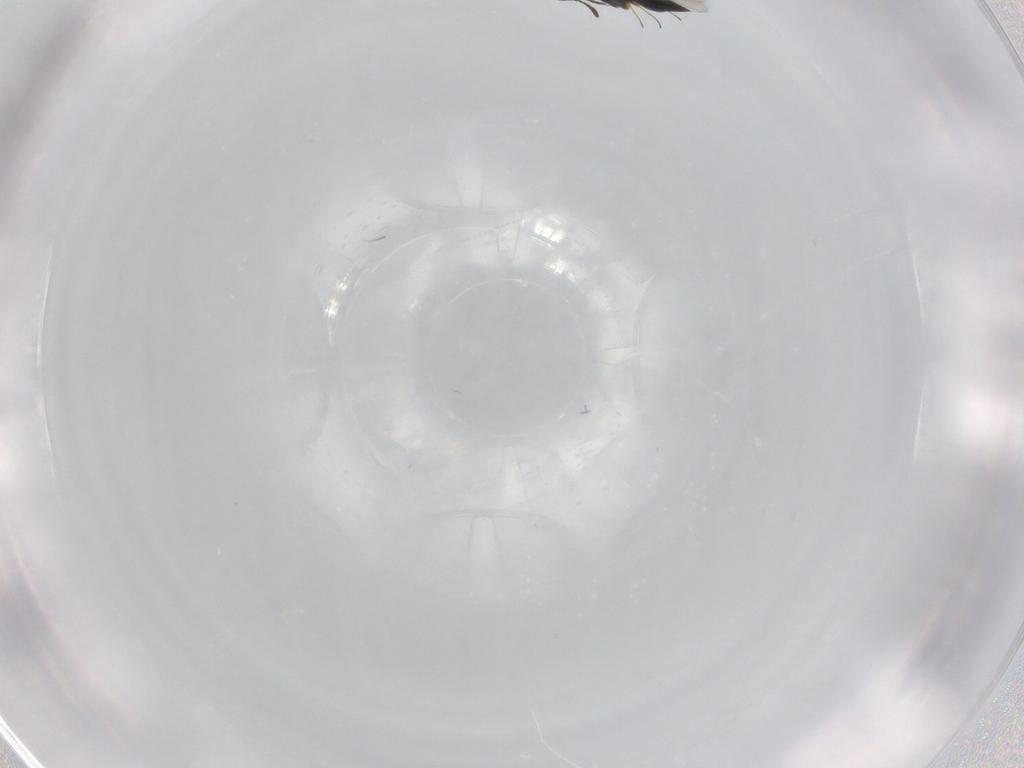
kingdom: Animalia
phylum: Arthropoda
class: Insecta
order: Hymenoptera
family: Scelionidae
